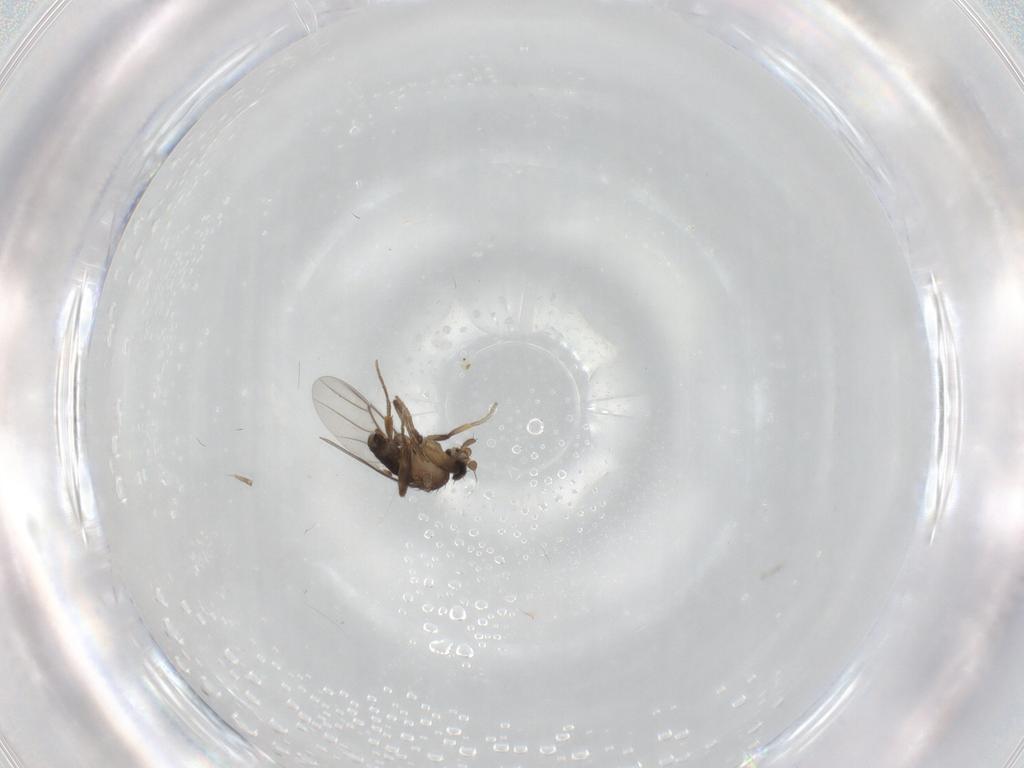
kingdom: Animalia
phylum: Arthropoda
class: Insecta
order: Diptera
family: Phoridae
